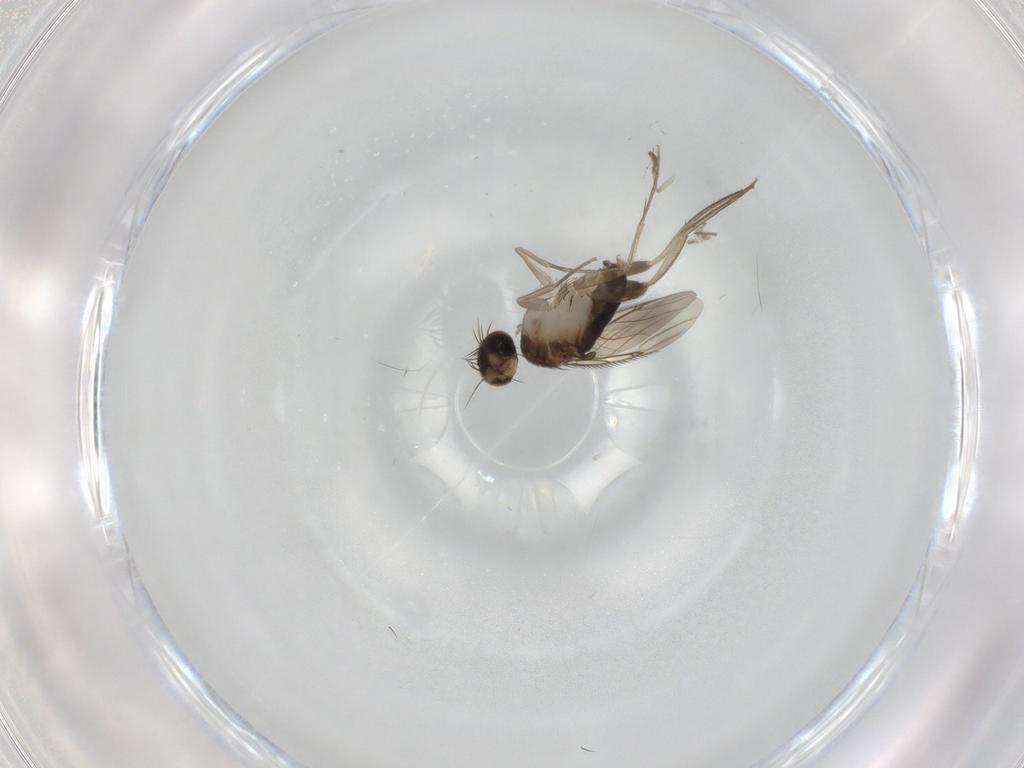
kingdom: Animalia
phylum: Arthropoda
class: Insecta
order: Diptera
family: Phoridae
